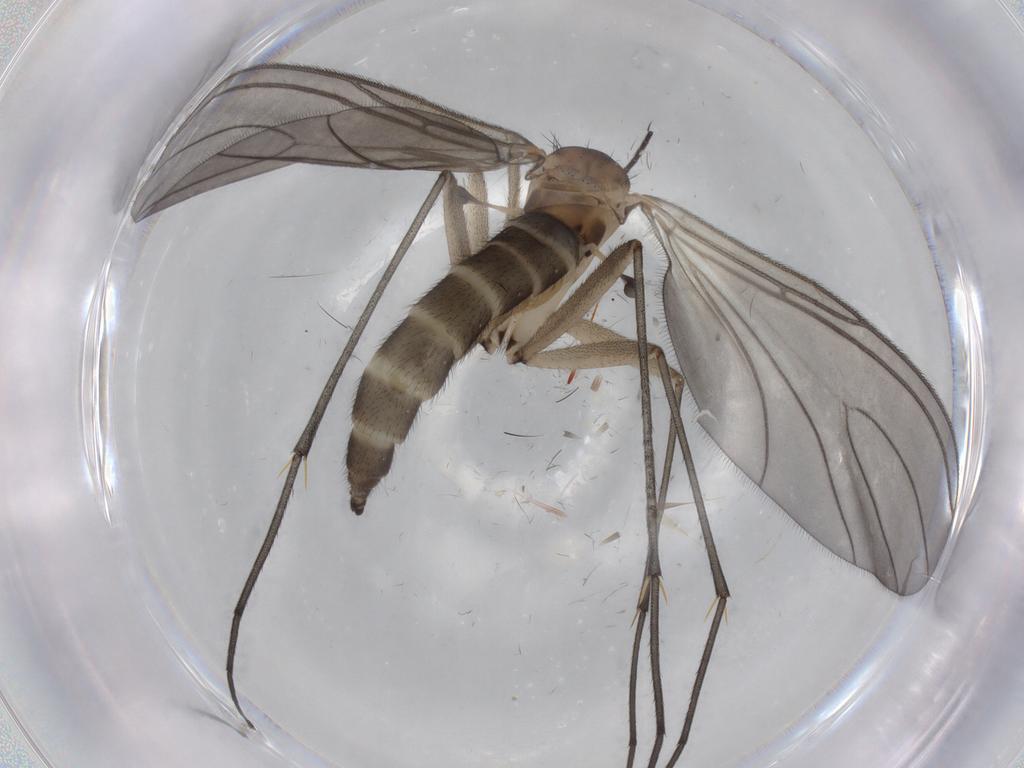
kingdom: Animalia
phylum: Arthropoda
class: Insecta
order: Diptera
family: Sciaridae
